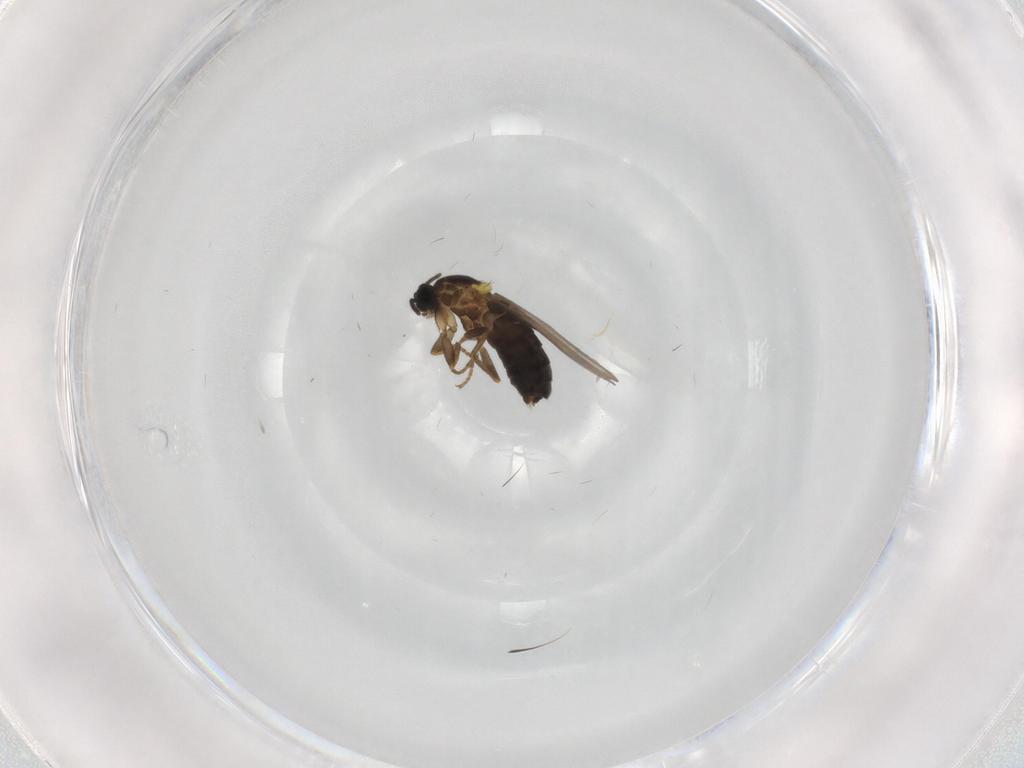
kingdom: Animalia
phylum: Arthropoda
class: Insecta
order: Diptera
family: Scatopsidae
